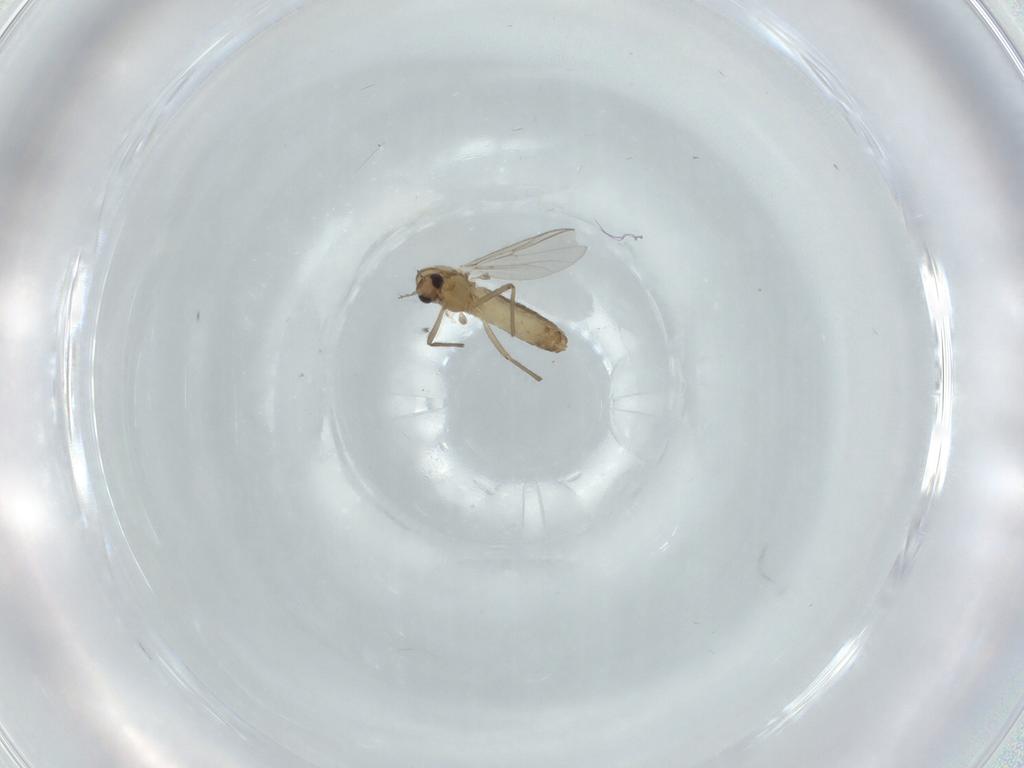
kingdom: Animalia
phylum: Arthropoda
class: Insecta
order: Diptera
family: Chironomidae
